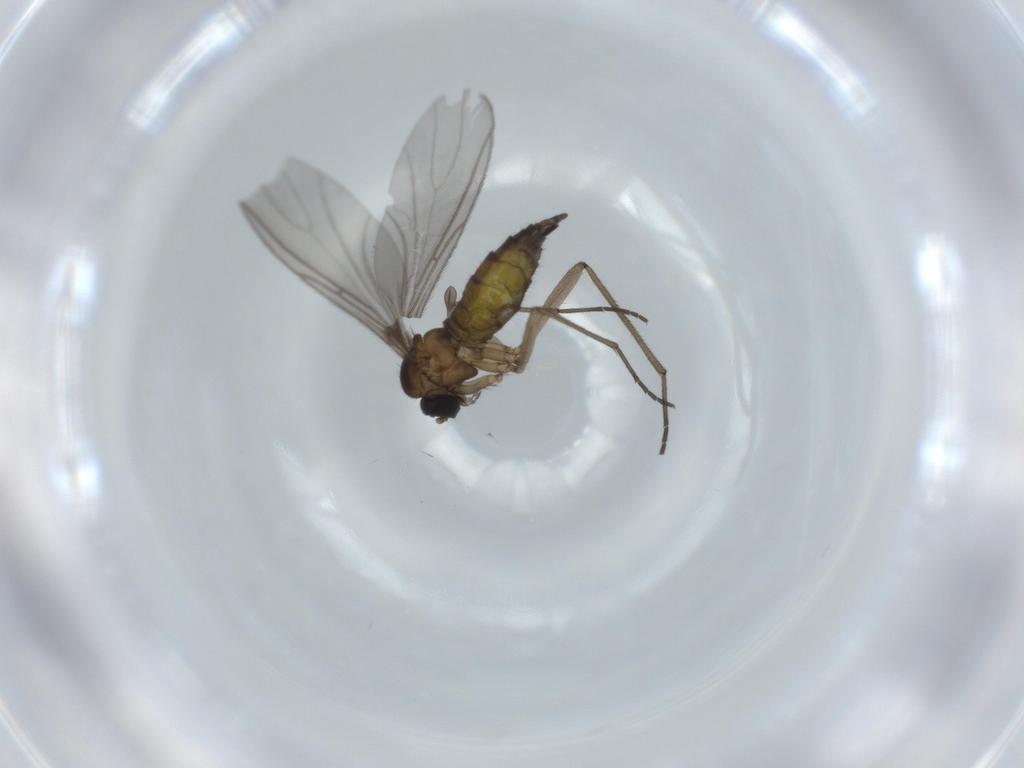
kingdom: Animalia
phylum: Arthropoda
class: Insecta
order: Diptera
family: Sciaridae
